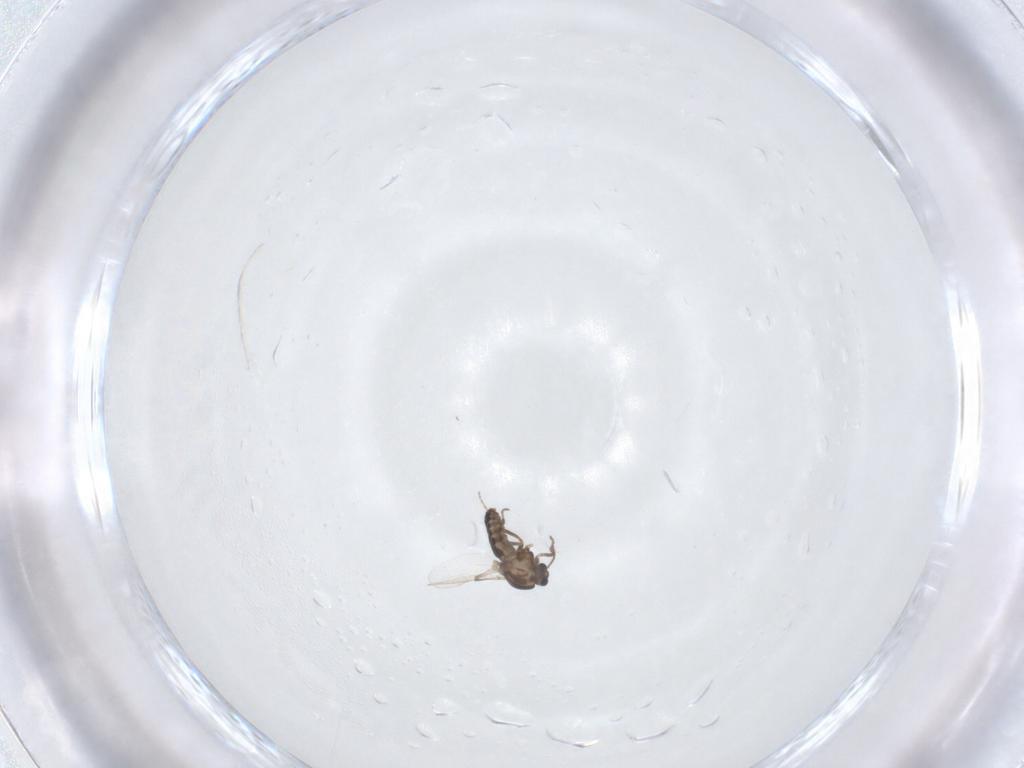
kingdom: Animalia
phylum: Arthropoda
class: Insecta
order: Diptera
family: Ceratopogonidae
